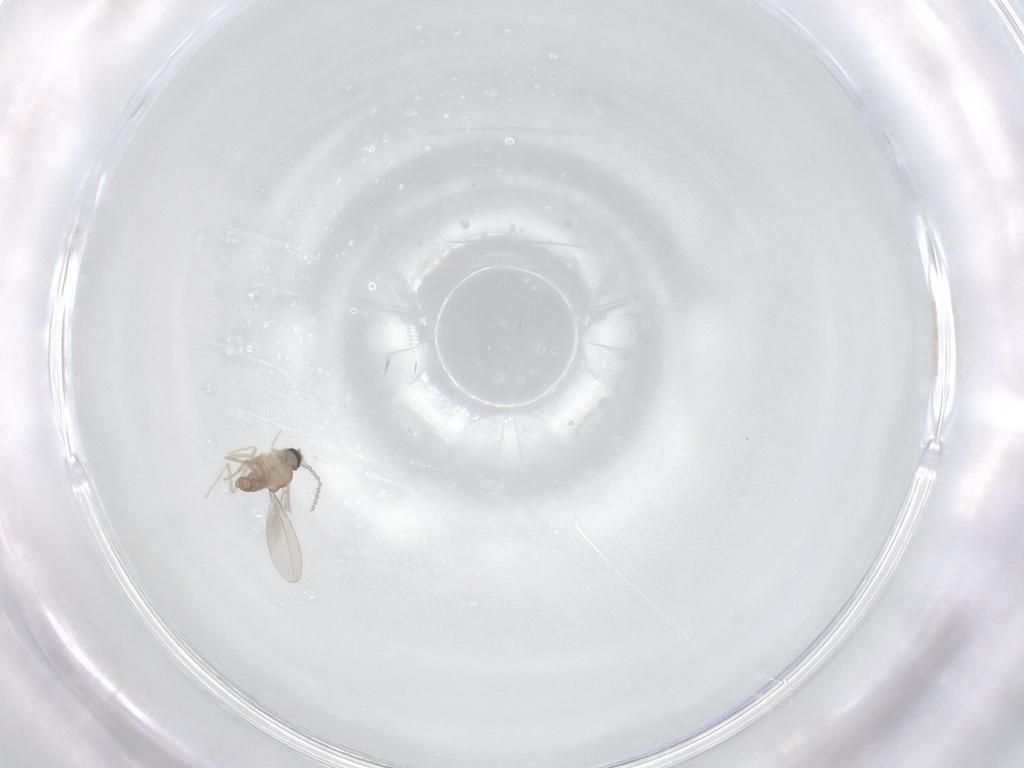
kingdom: Animalia
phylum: Arthropoda
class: Insecta
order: Diptera
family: Cecidomyiidae
